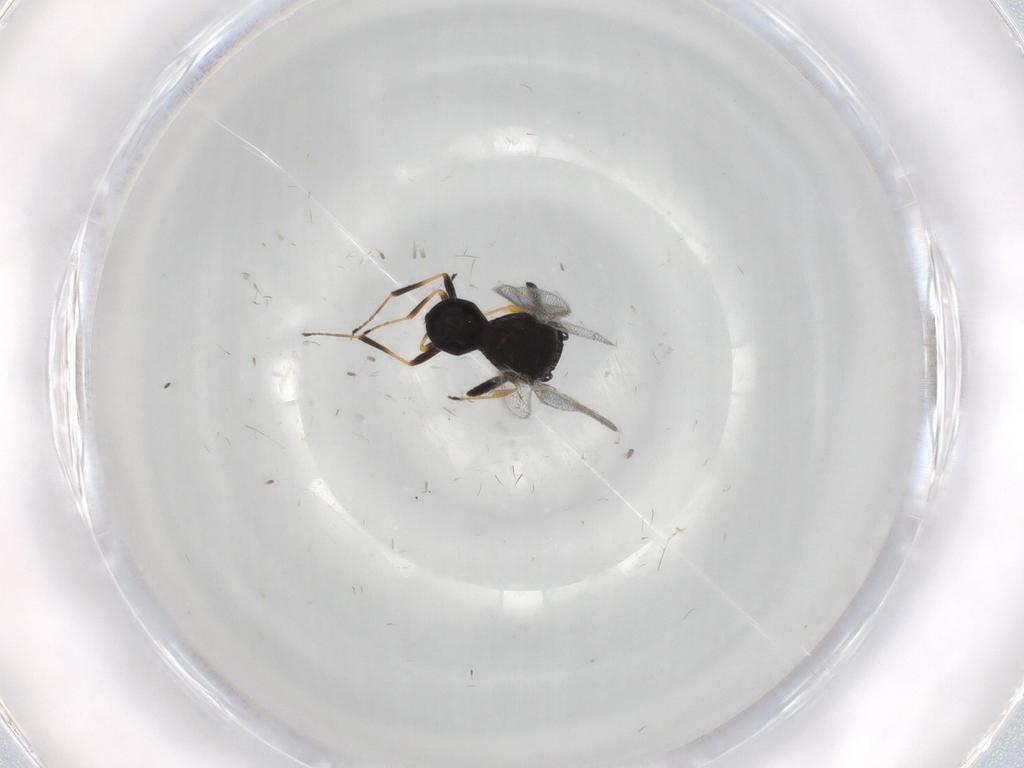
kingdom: Animalia
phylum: Arthropoda
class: Insecta
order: Hymenoptera
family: Scelionidae
